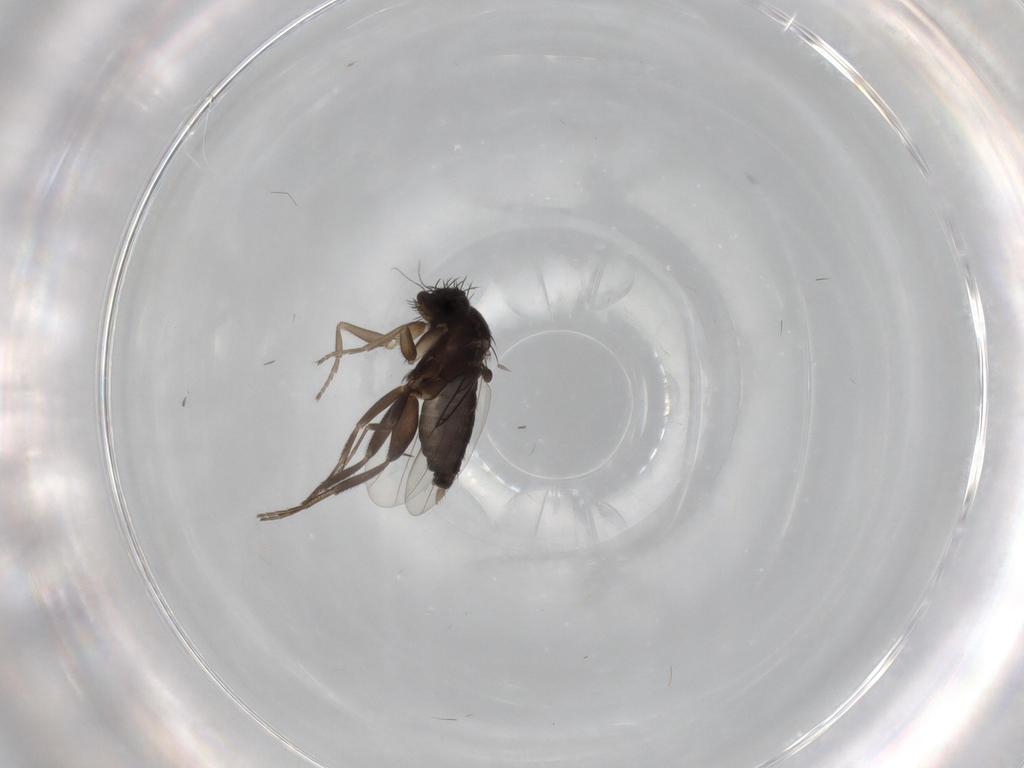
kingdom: Animalia
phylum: Arthropoda
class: Insecta
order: Diptera
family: Phoridae
